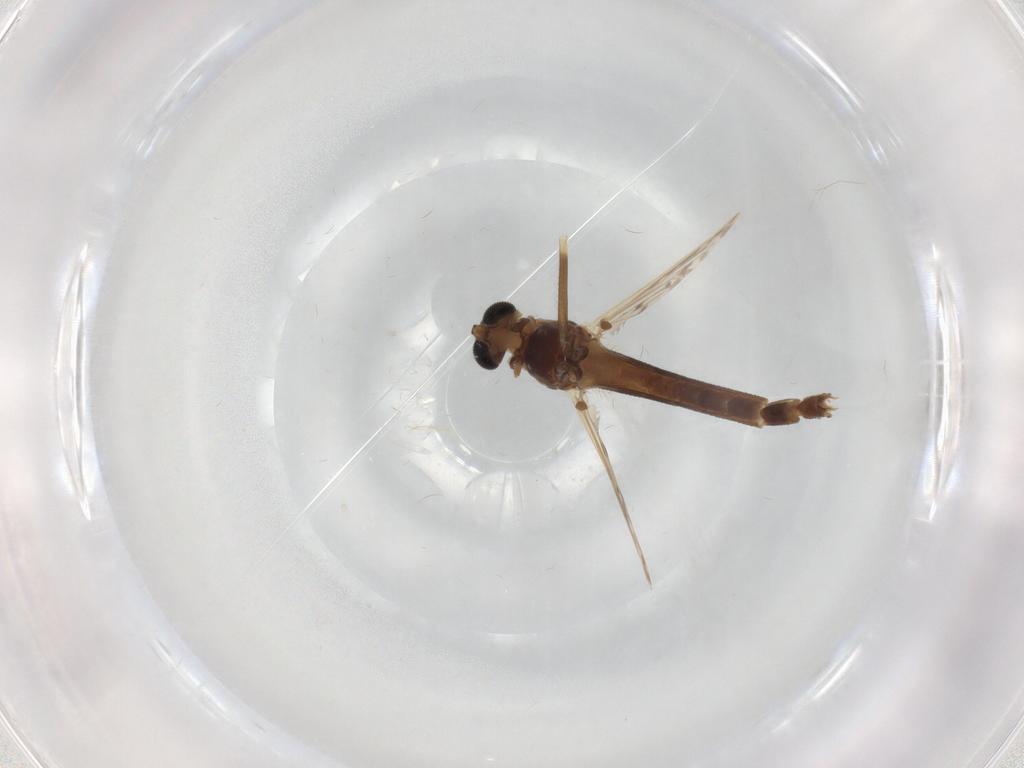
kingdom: Animalia
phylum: Arthropoda
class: Insecta
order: Diptera
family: Chironomidae
